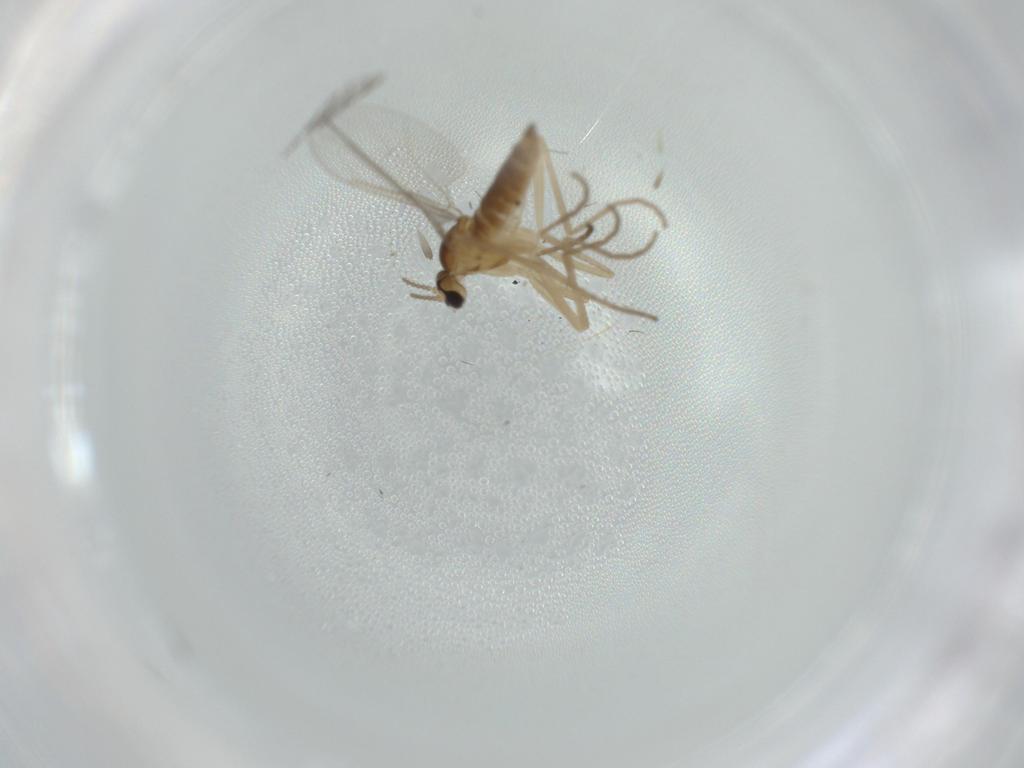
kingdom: Animalia
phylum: Arthropoda
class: Insecta
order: Diptera
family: Cecidomyiidae
